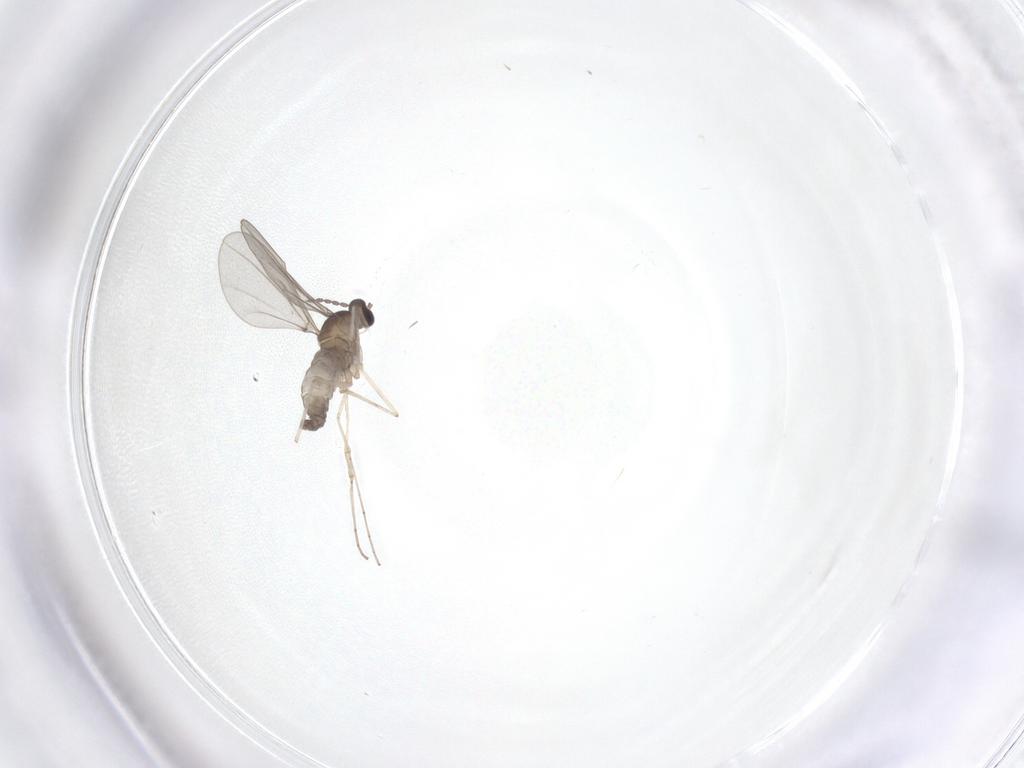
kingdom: Animalia
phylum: Arthropoda
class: Insecta
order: Diptera
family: Cecidomyiidae
